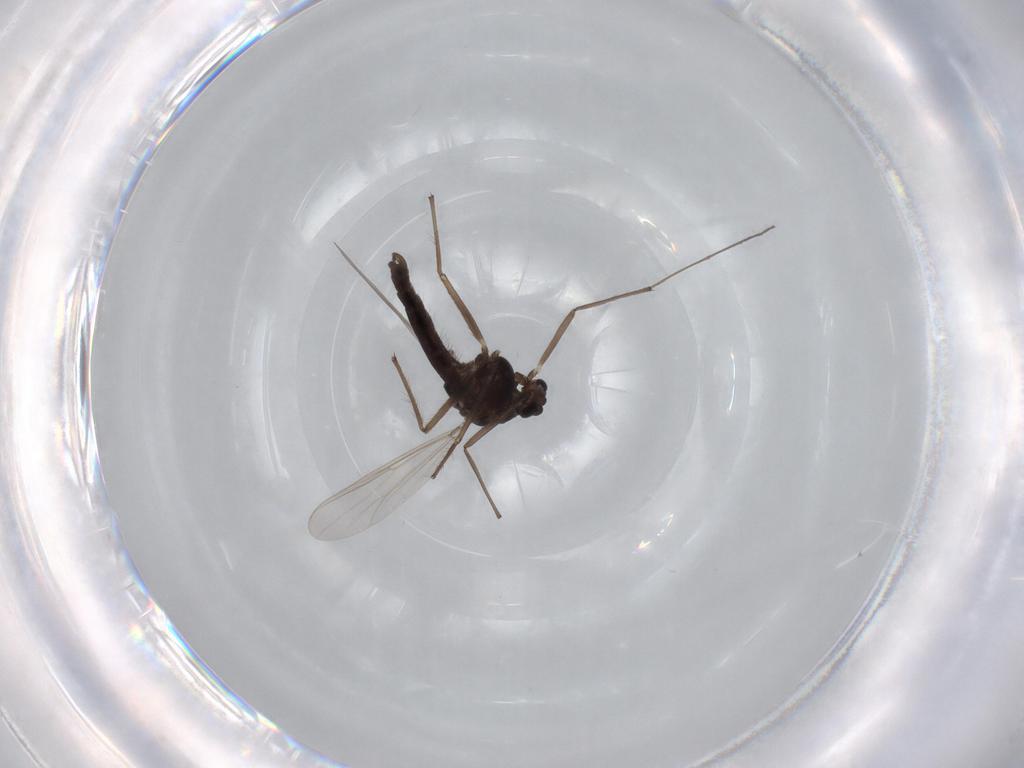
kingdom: Animalia
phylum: Arthropoda
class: Insecta
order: Diptera
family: Chironomidae
